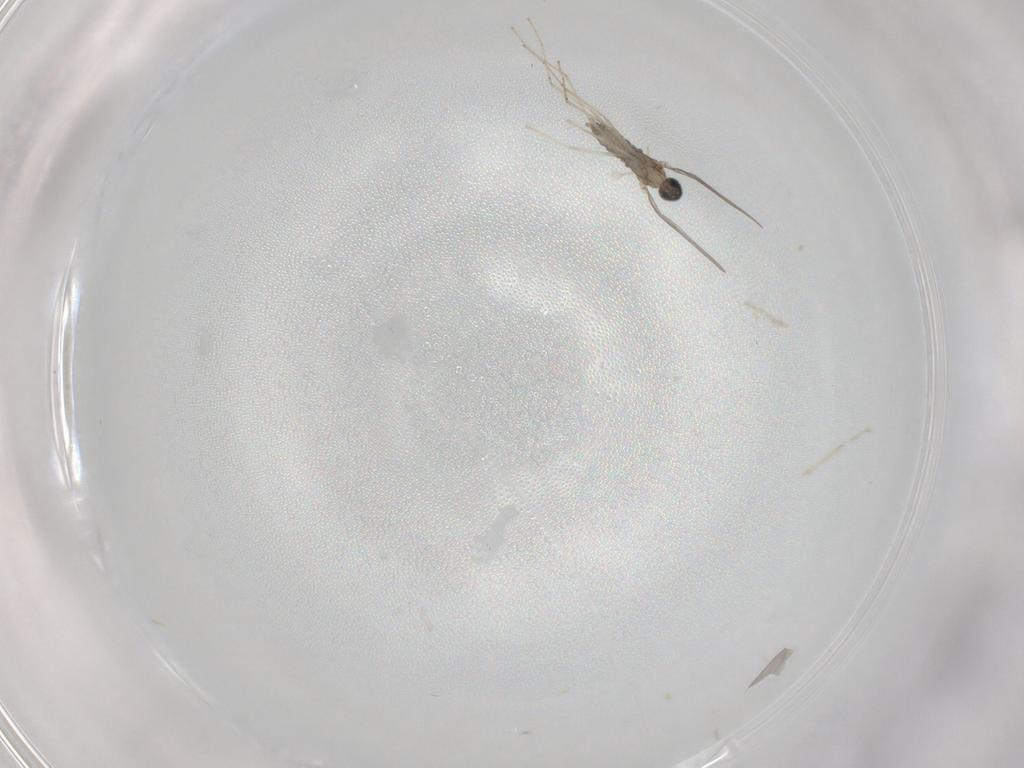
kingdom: Animalia
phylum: Arthropoda
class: Insecta
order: Diptera
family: Cecidomyiidae
